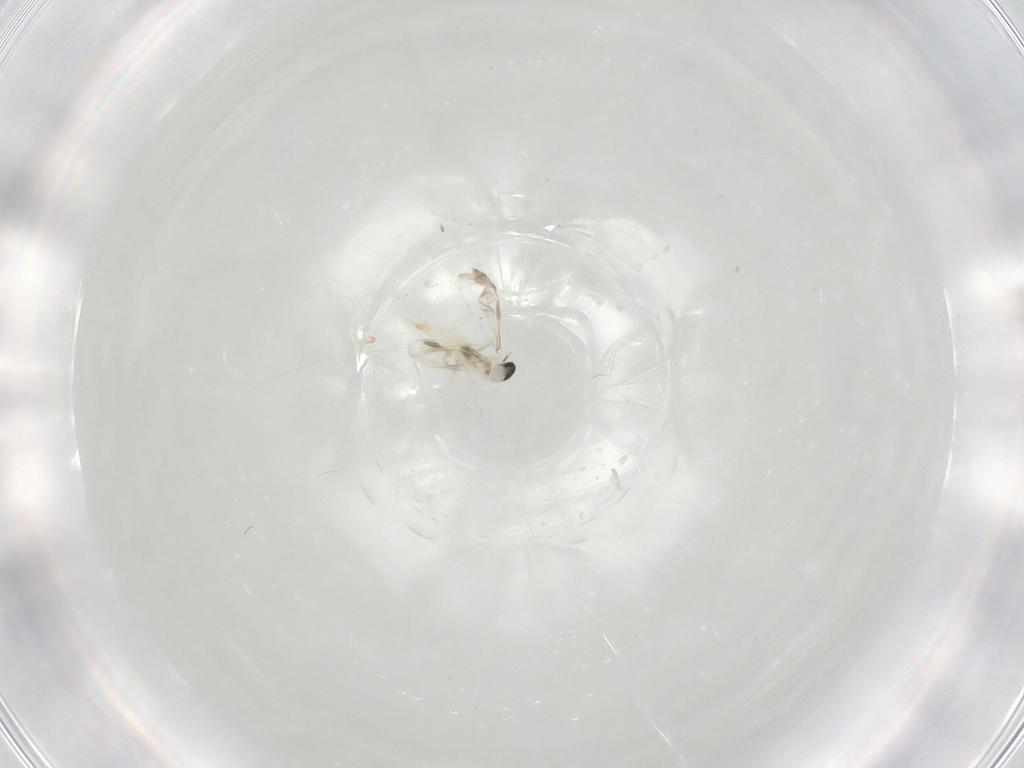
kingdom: Animalia
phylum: Arthropoda
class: Insecta
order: Diptera
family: Cecidomyiidae
